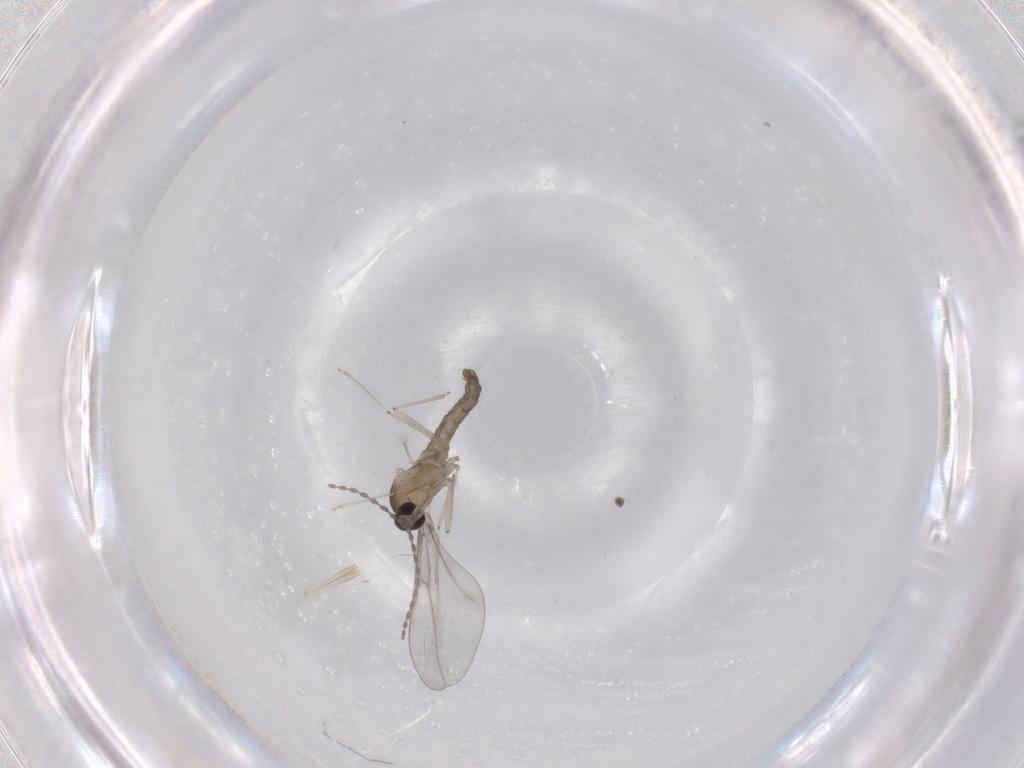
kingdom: Animalia
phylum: Arthropoda
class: Insecta
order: Diptera
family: Cecidomyiidae
